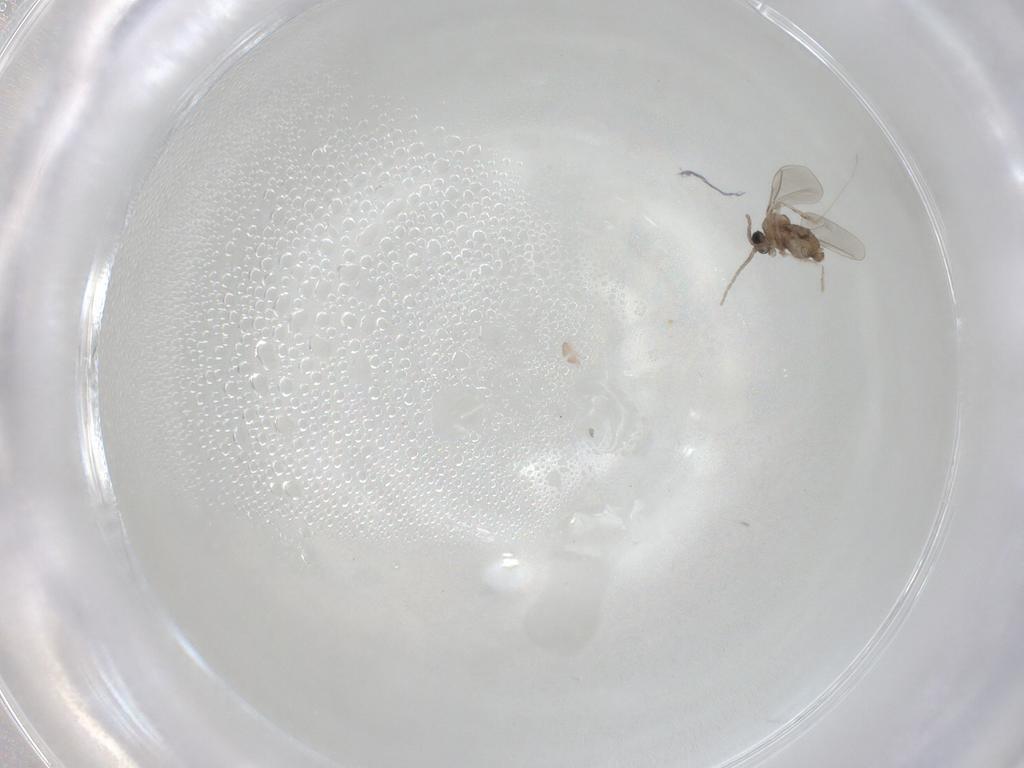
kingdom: Animalia
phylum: Arthropoda
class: Insecta
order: Diptera
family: Cecidomyiidae
